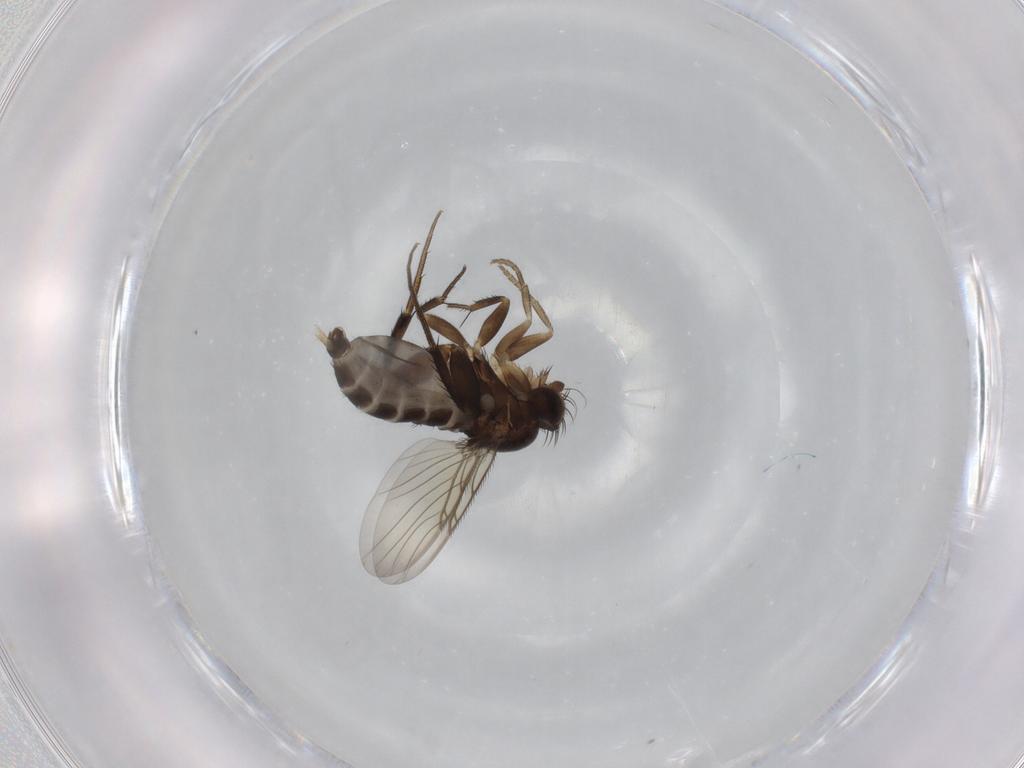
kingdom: Animalia
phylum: Arthropoda
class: Insecta
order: Diptera
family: Phoridae
